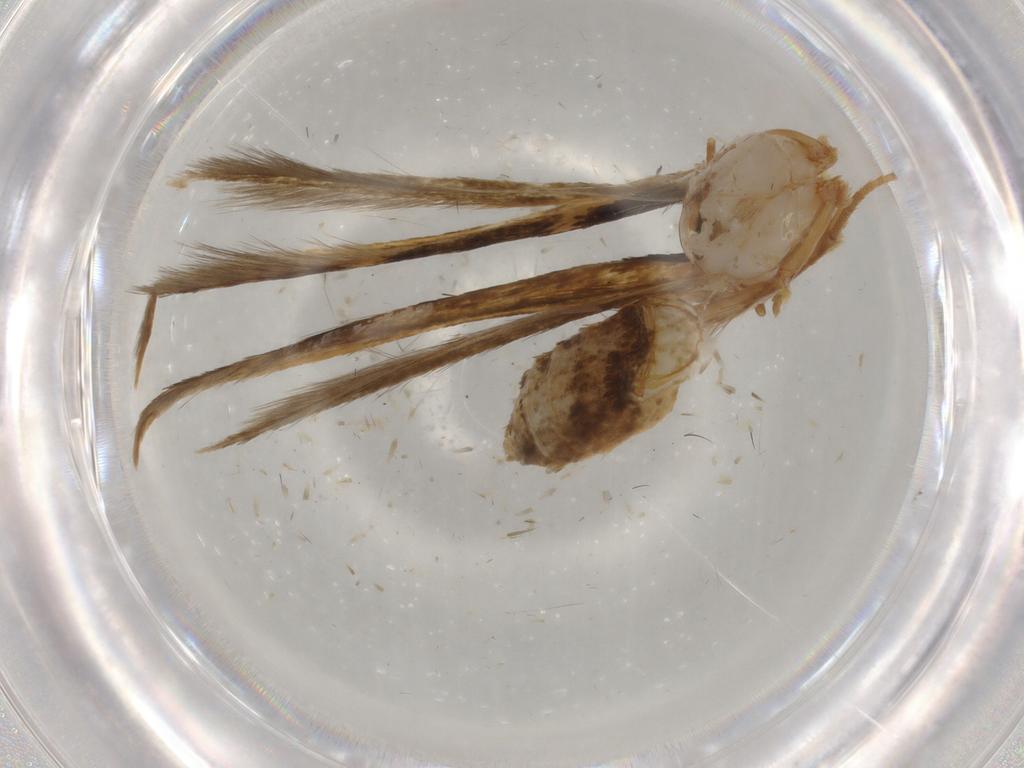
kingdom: Animalia
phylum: Arthropoda
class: Insecta
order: Lepidoptera
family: Tineidae
